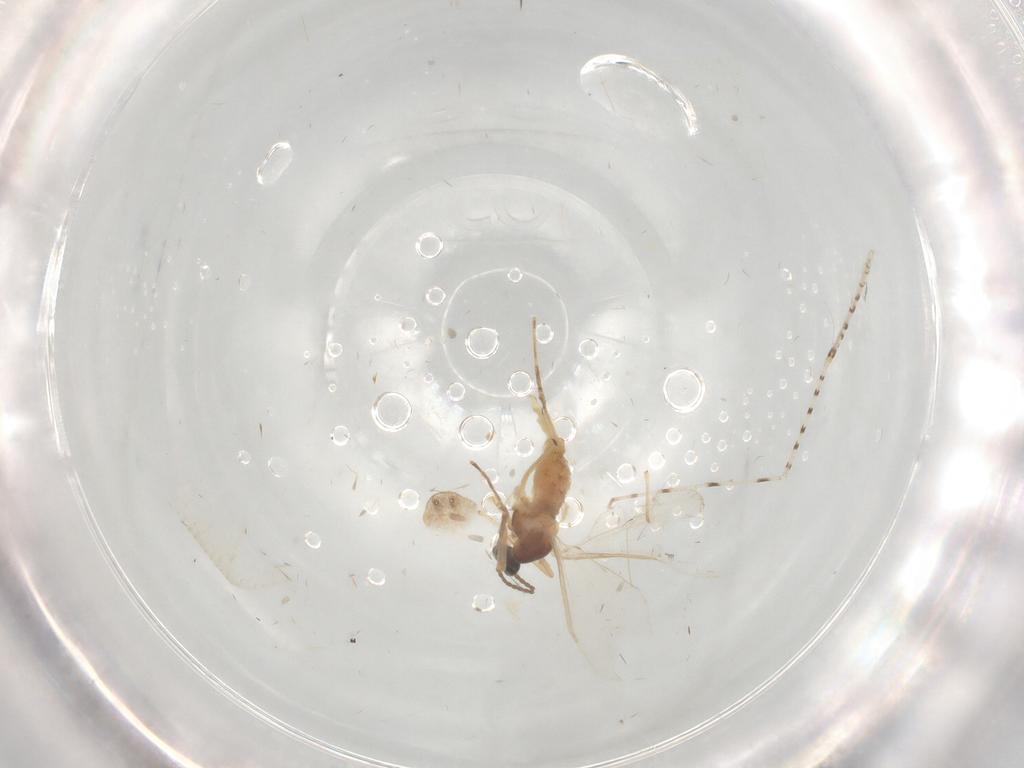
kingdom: Animalia
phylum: Arthropoda
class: Insecta
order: Diptera
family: Cecidomyiidae
